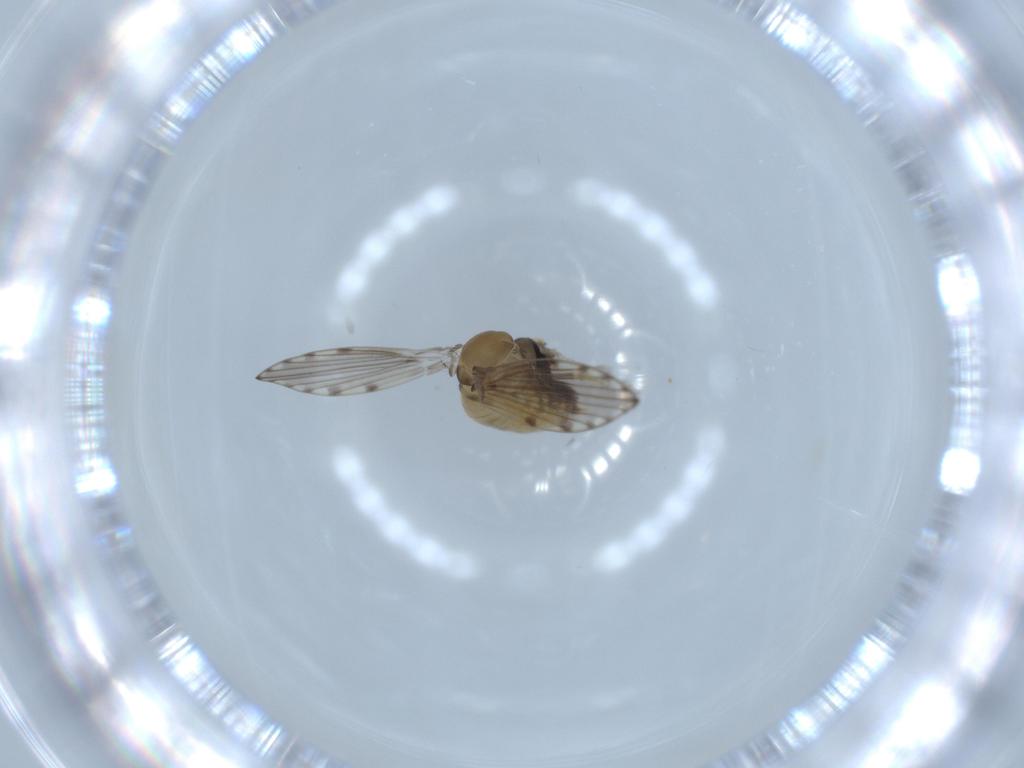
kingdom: Animalia
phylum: Arthropoda
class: Insecta
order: Diptera
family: Psychodidae
